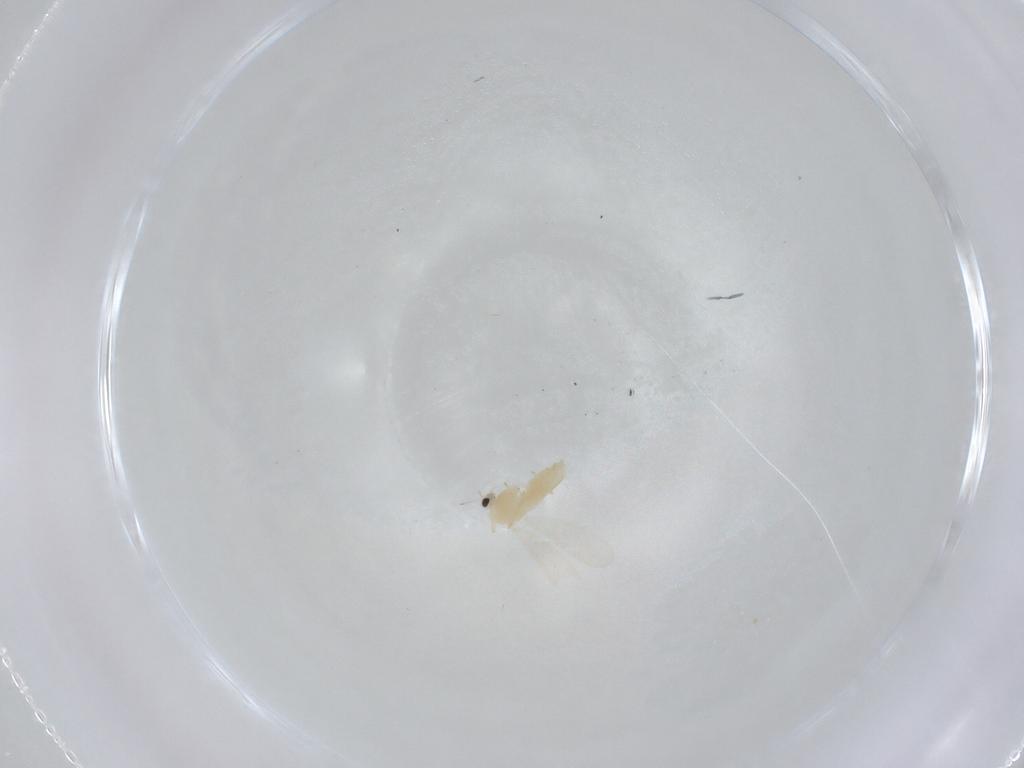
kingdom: Animalia
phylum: Arthropoda
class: Insecta
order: Diptera
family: Chironomidae
